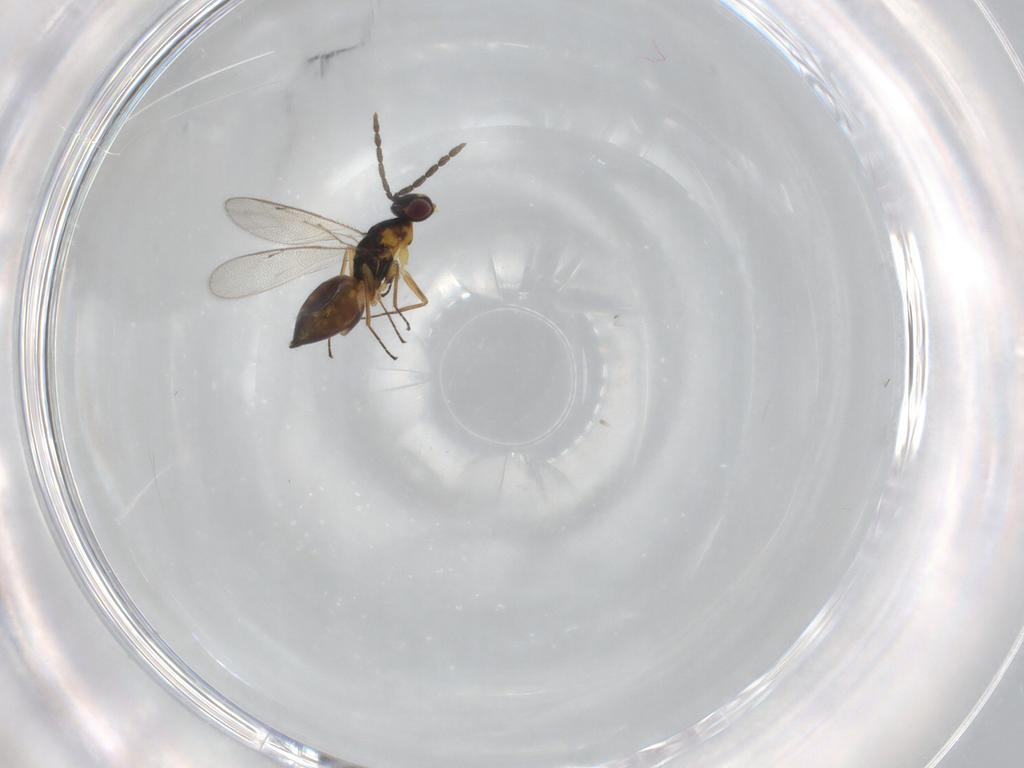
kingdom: Animalia
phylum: Arthropoda
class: Insecta
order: Hymenoptera
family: Eulophidae
